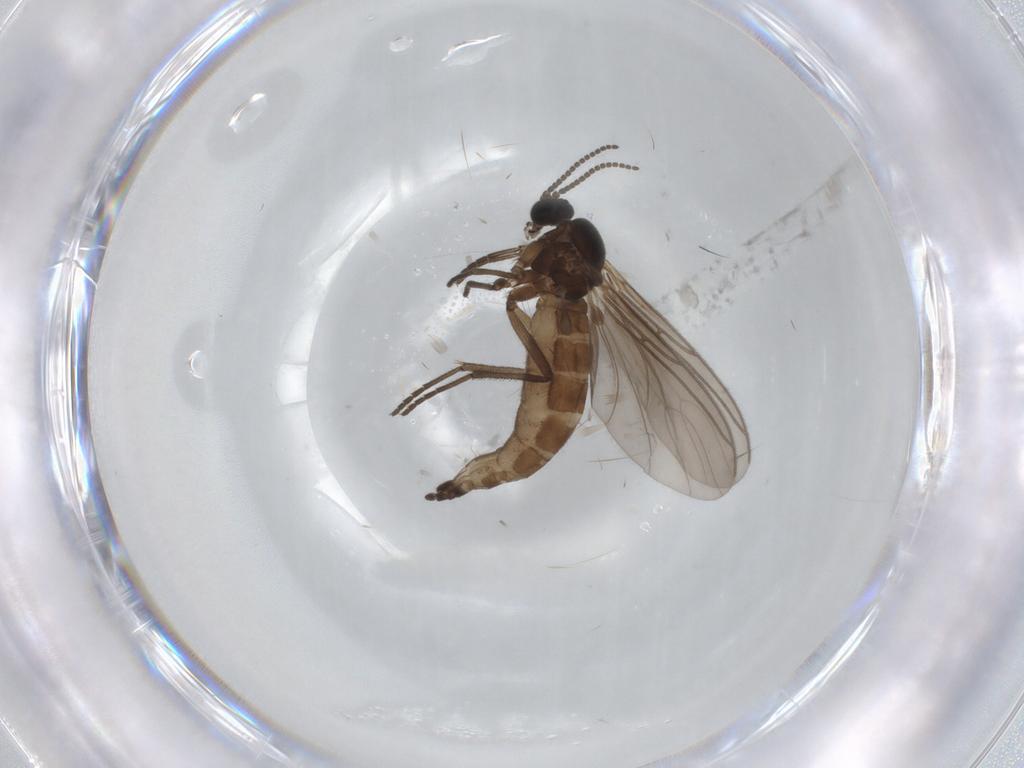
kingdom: Animalia
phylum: Arthropoda
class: Insecta
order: Diptera
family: Sciaridae
